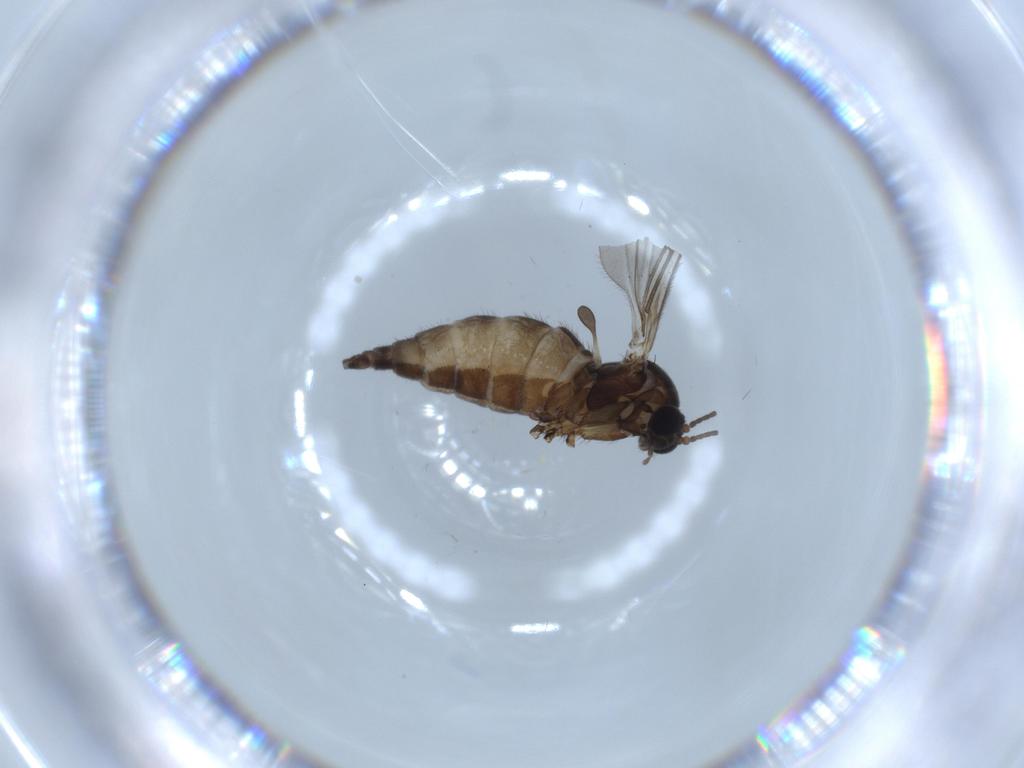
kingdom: Animalia
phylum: Arthropoda
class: Insecta
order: Diptera
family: Sciaridae
